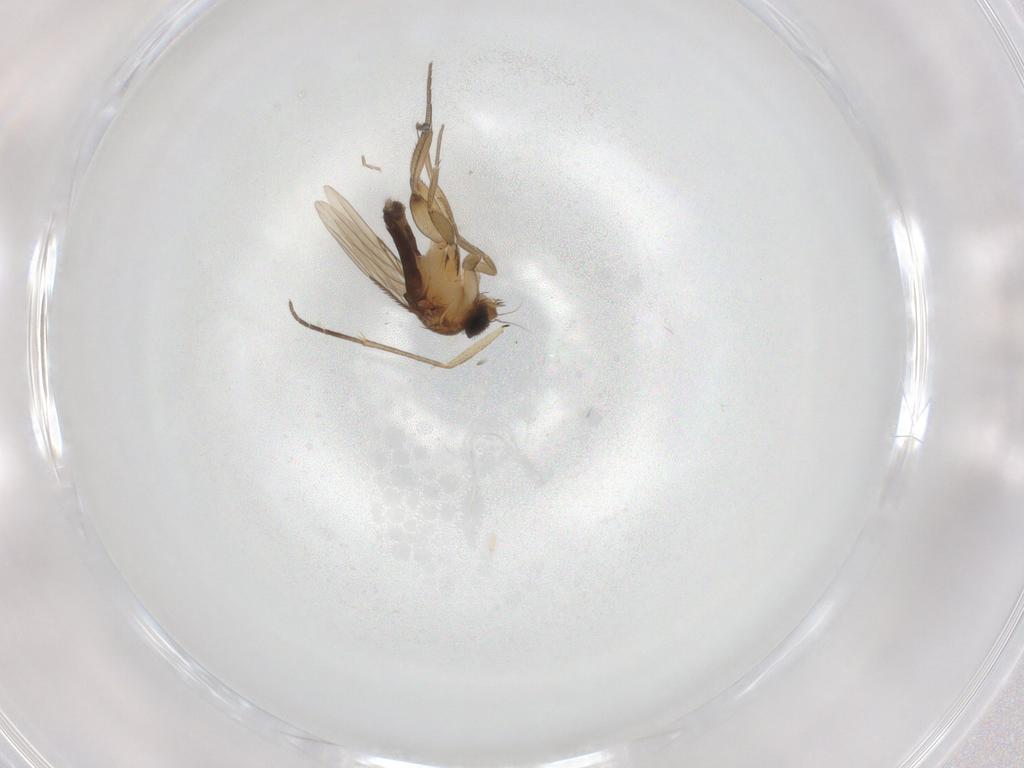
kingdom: Animalia
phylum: Arthropoda
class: Insecta
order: Diptera
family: Phoridae
